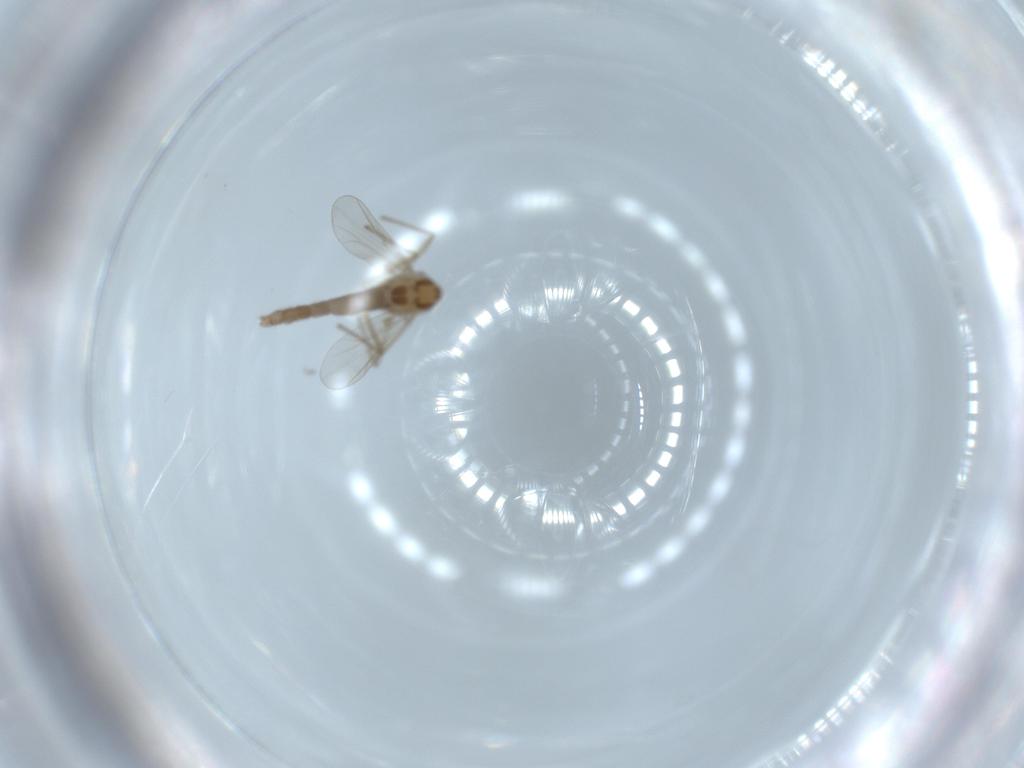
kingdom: Animalia
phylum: Arthropoda
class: Insecta
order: Diptera
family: Chironomidae
